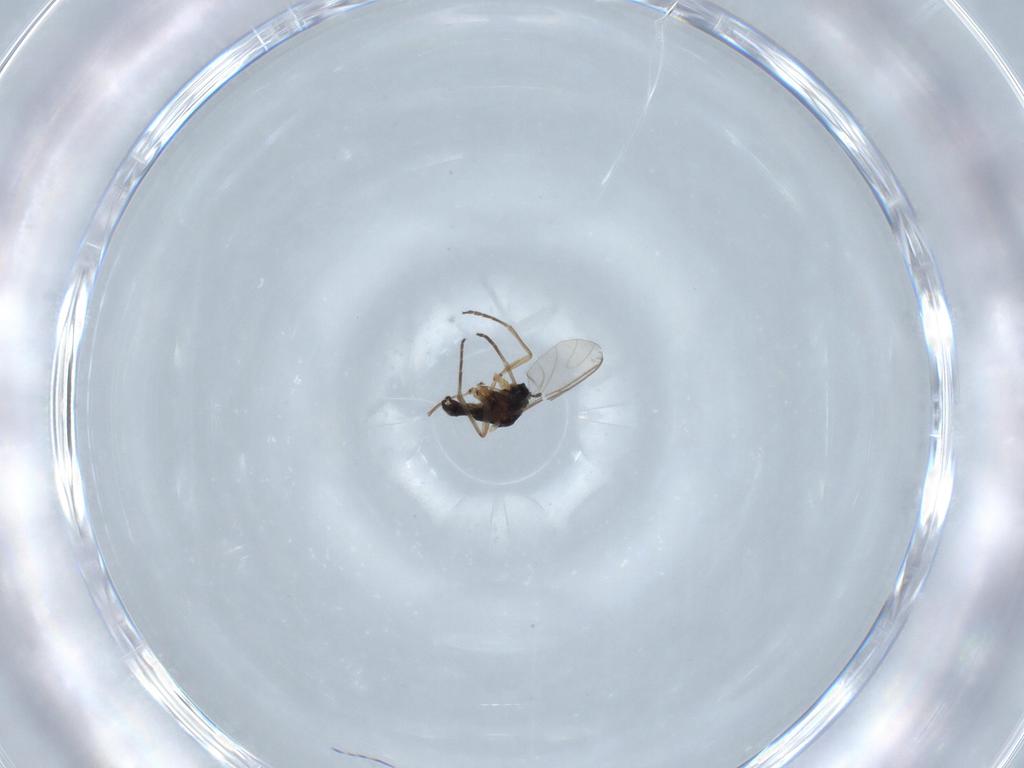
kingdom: Animalia
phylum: Arthropoda
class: Insecta
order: Diptera
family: Sciaridae
